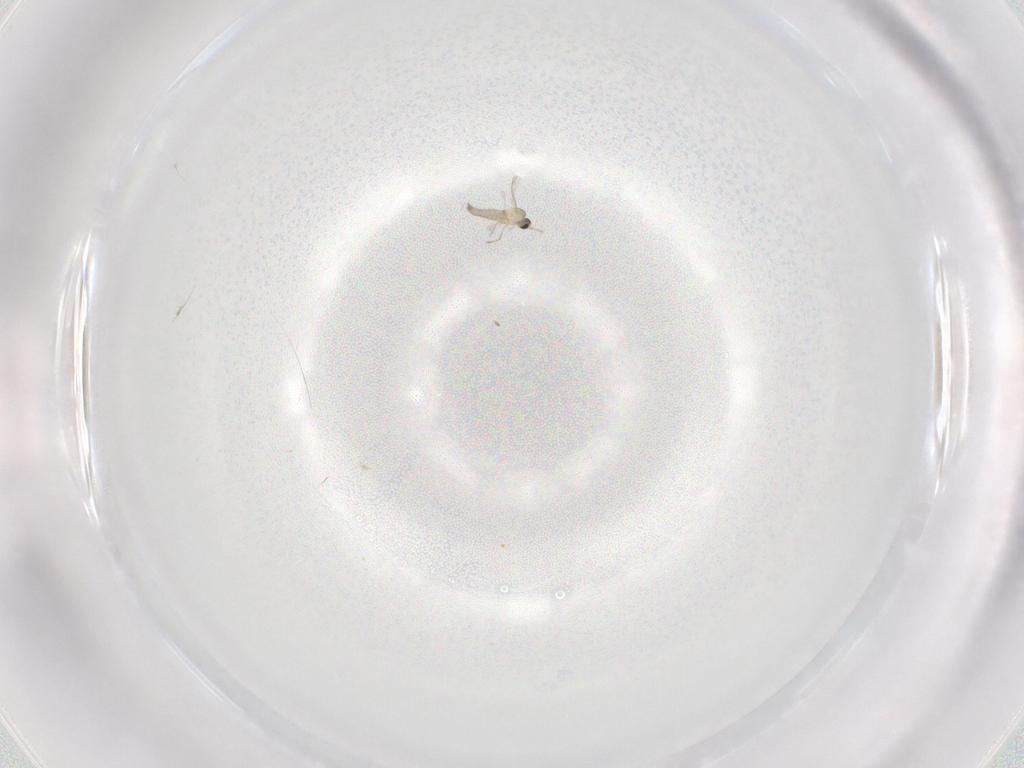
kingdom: Animalia
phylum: Arthropoda
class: Insecta
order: Diptera
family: Cecidomyiidae
